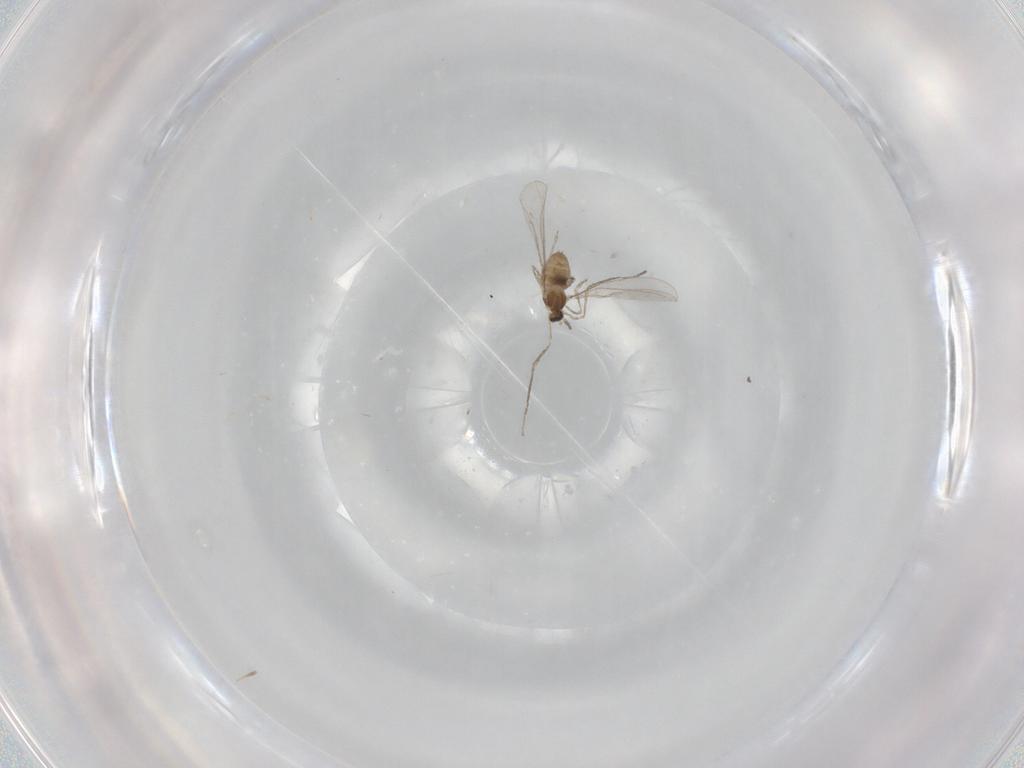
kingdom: Animalia
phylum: Arthropoda
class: Insecta
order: Diptera
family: Cecidomyiidae
